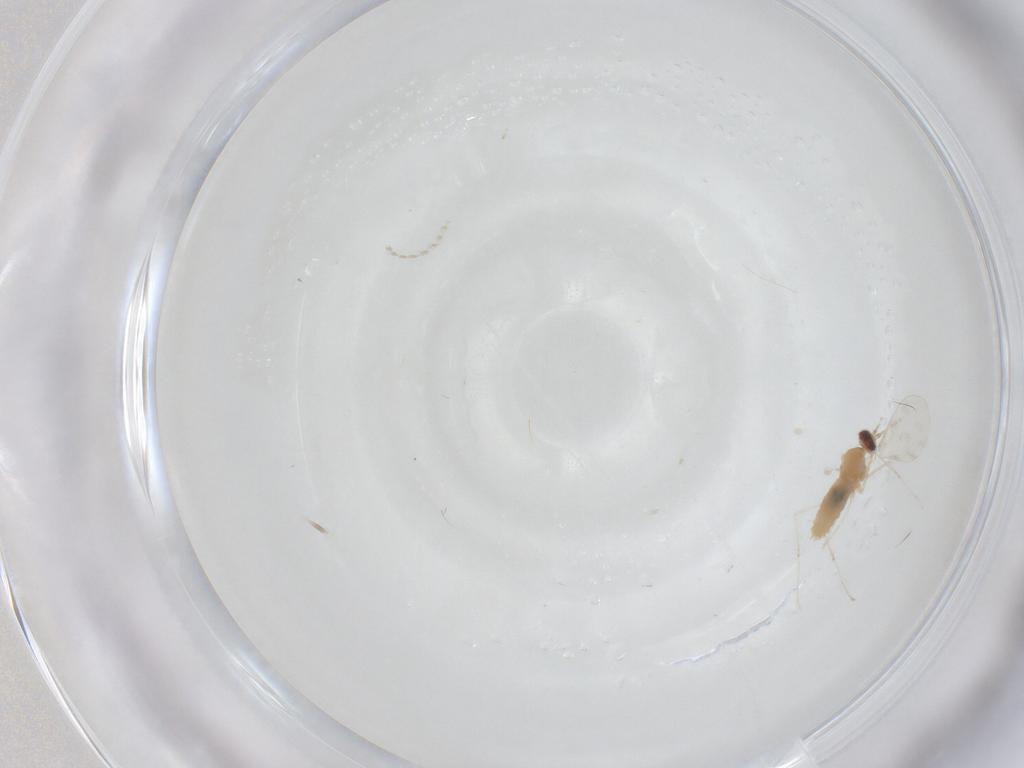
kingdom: Animalia
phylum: Arthropoda
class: Insecta
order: Diptera
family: Cecidomyiidae
